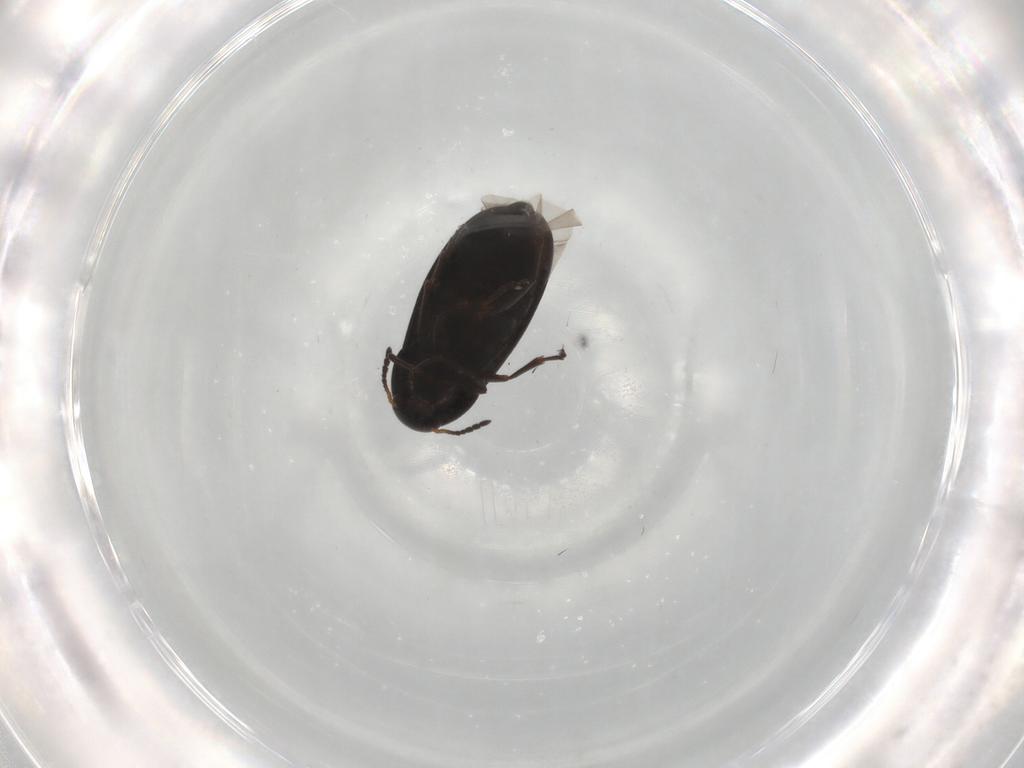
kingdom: Animalia
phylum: Arthropoda
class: Insecta
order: Coleoptera
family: Scraptiidae
